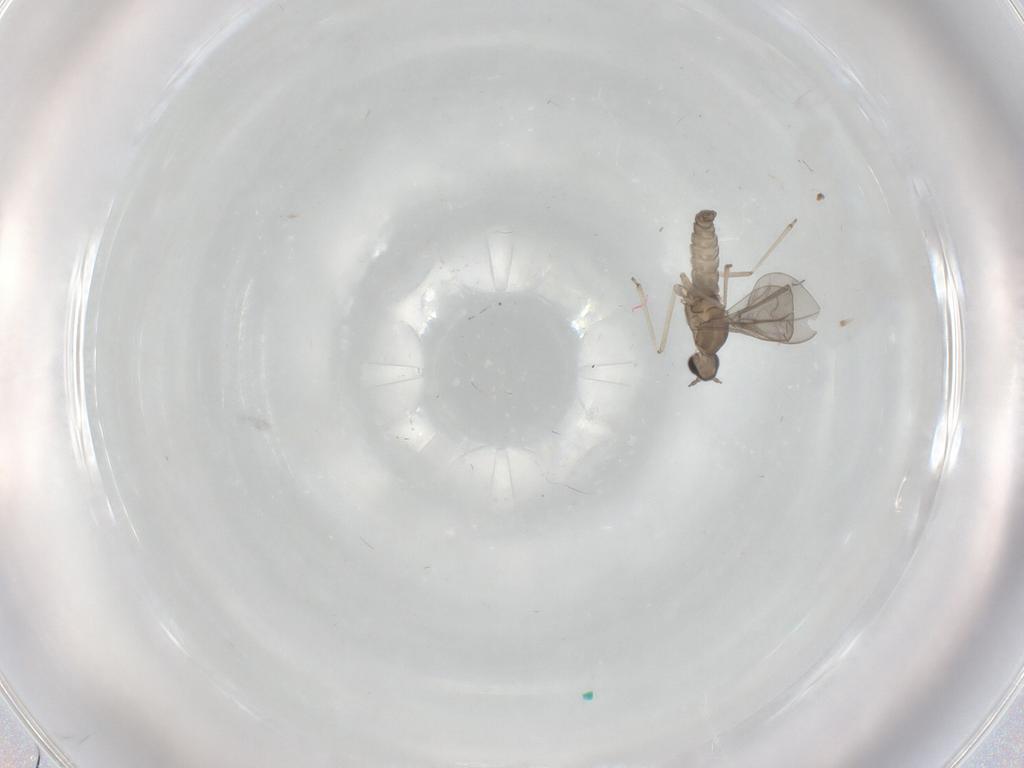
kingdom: Animalia
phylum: Arthropoda
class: Insecta
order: Diptera
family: Cecidomyiidae
